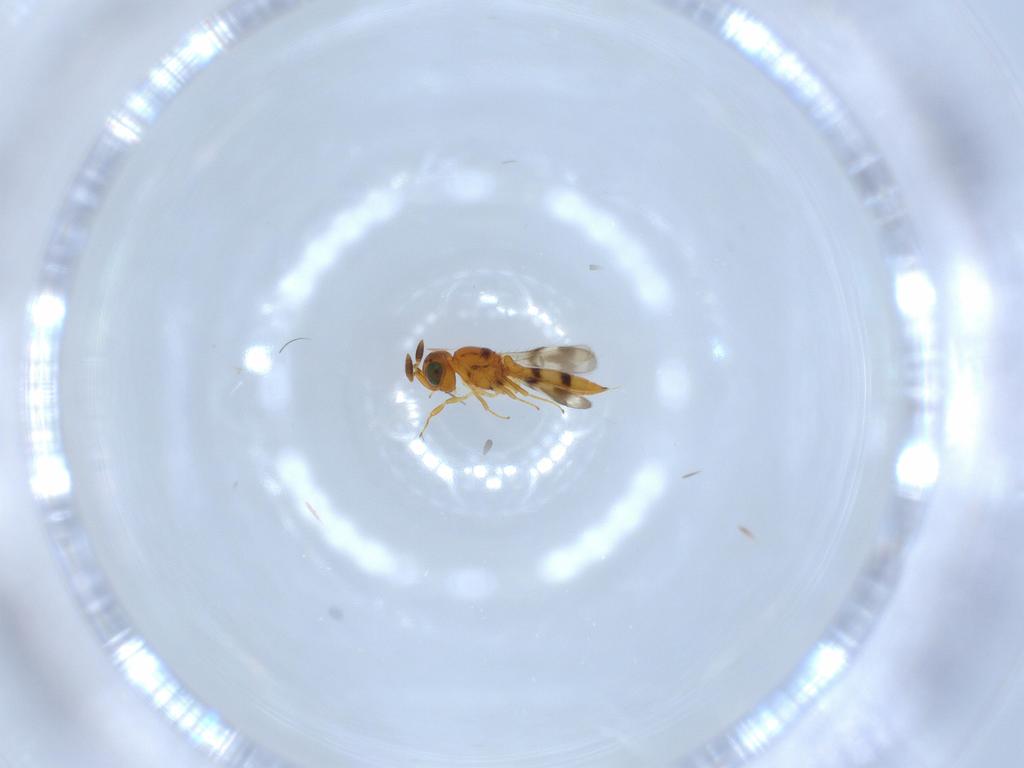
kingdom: Animalia
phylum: Arthropoda
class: Insecta
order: Hymenoptera
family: Scelionidae
